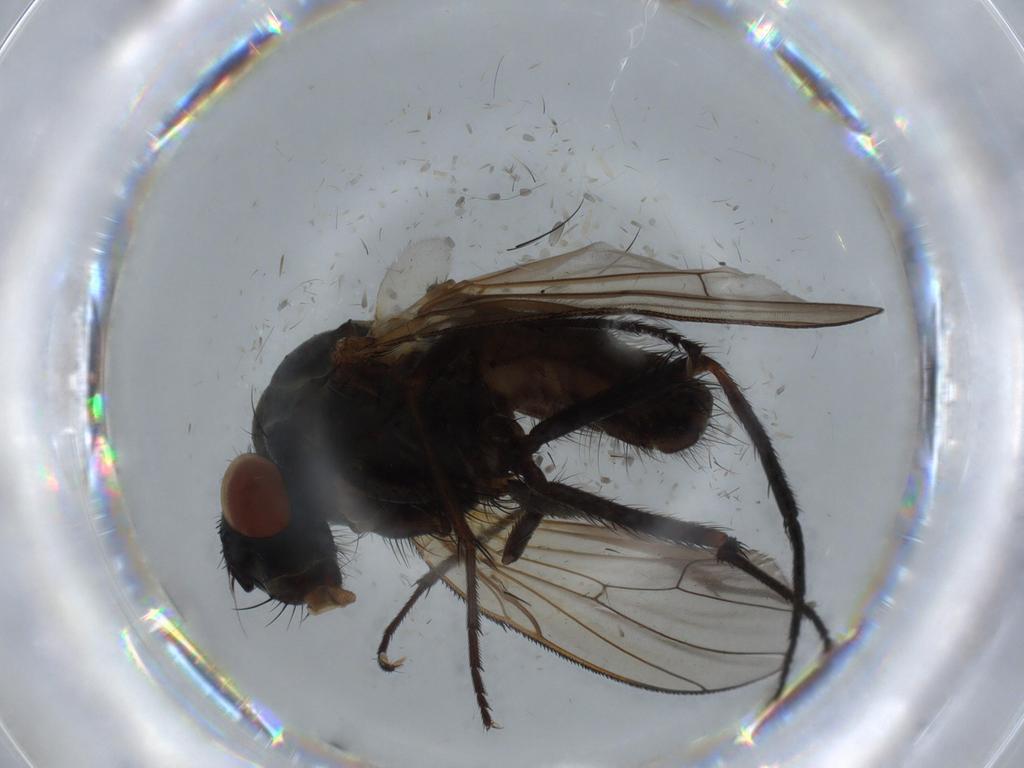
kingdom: Animalia
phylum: Arthropoda
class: Insecta
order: Diptera
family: Anthomyiidae
